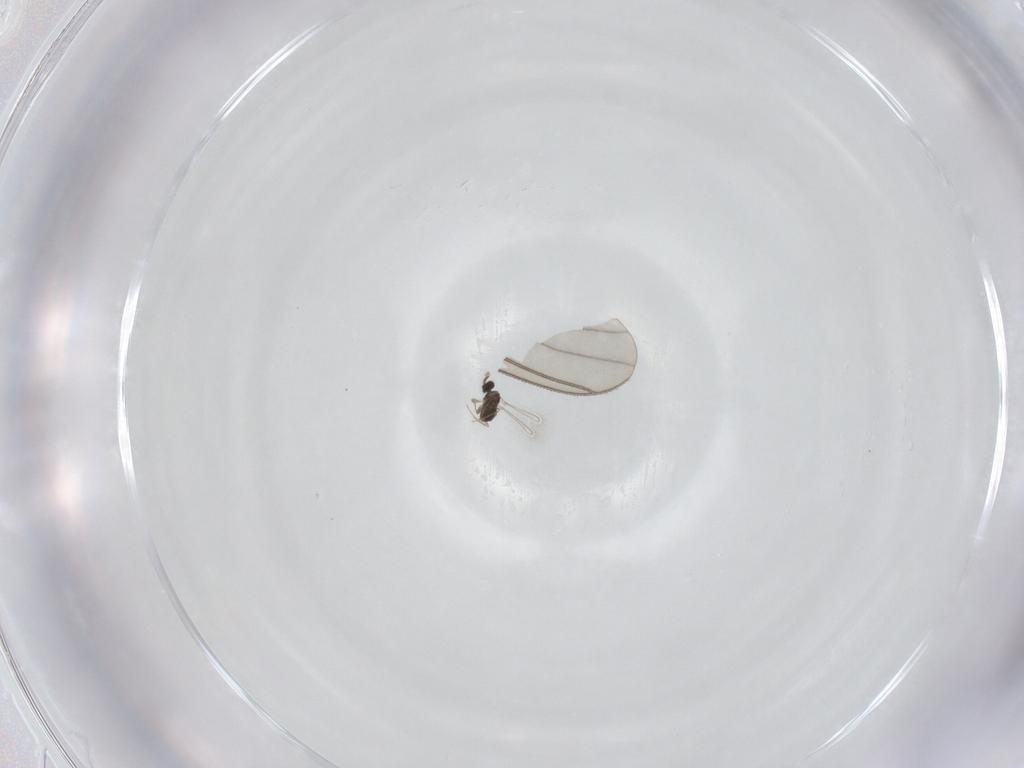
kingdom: Animalia
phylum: Arthropoda
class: Insecta
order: Diptera
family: Sciaridae
